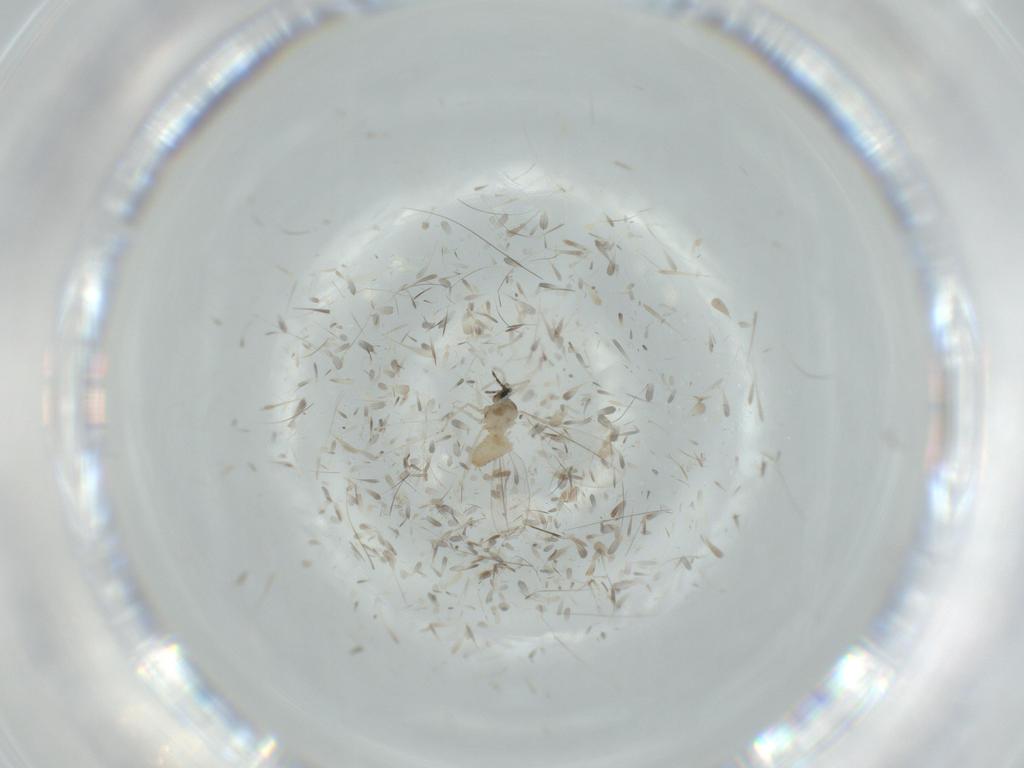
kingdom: Animalia
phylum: Arthropoda
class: Insecta
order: Diptera
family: Cecidomyiidae
